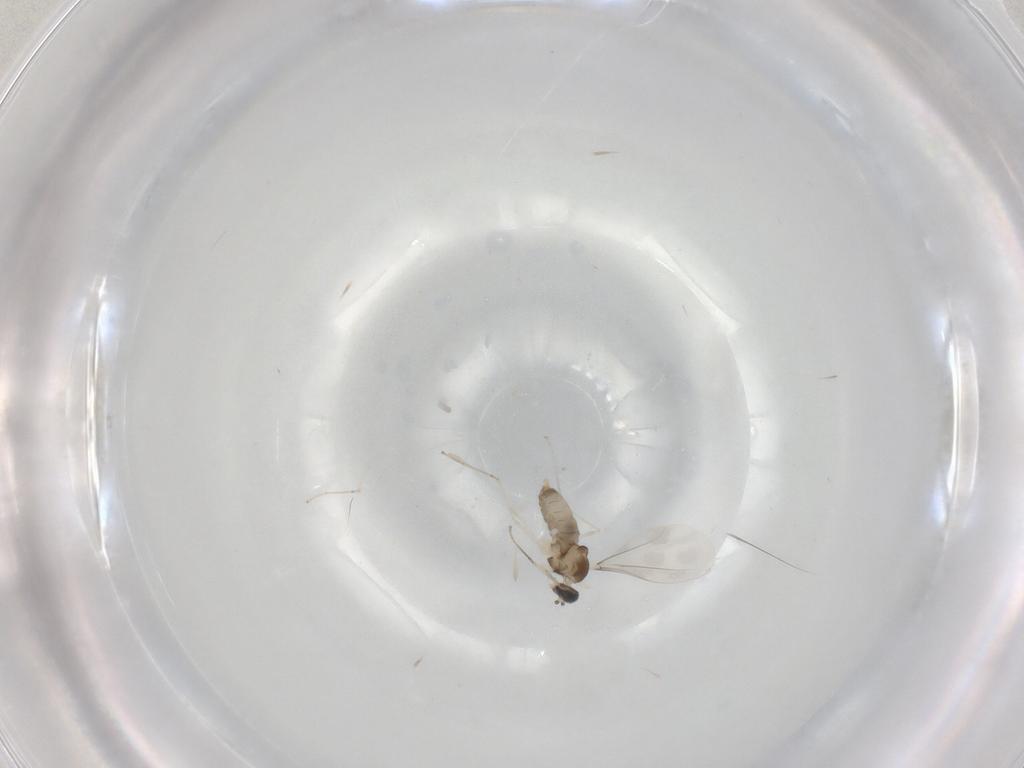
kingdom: Animalia
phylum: Arthropoda
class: Insecta
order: Diptera
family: Cecidomyiidae
